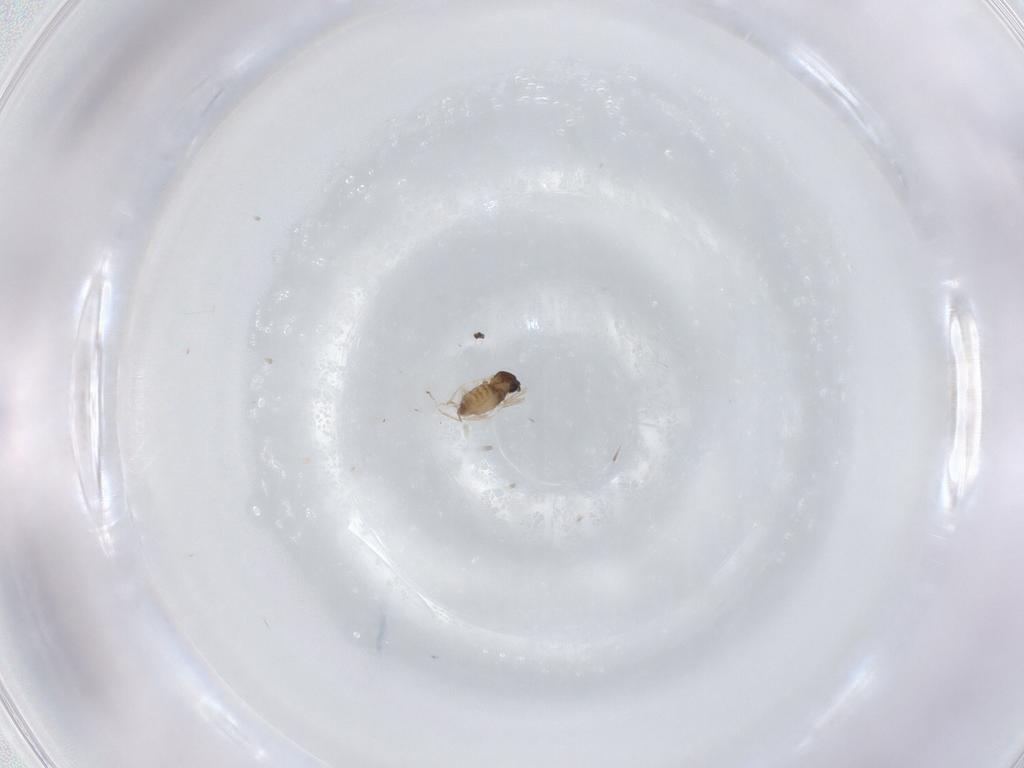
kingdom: Animalia
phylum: Arthropoda
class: Insecta
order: Diptera
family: Cecidomyiidae
